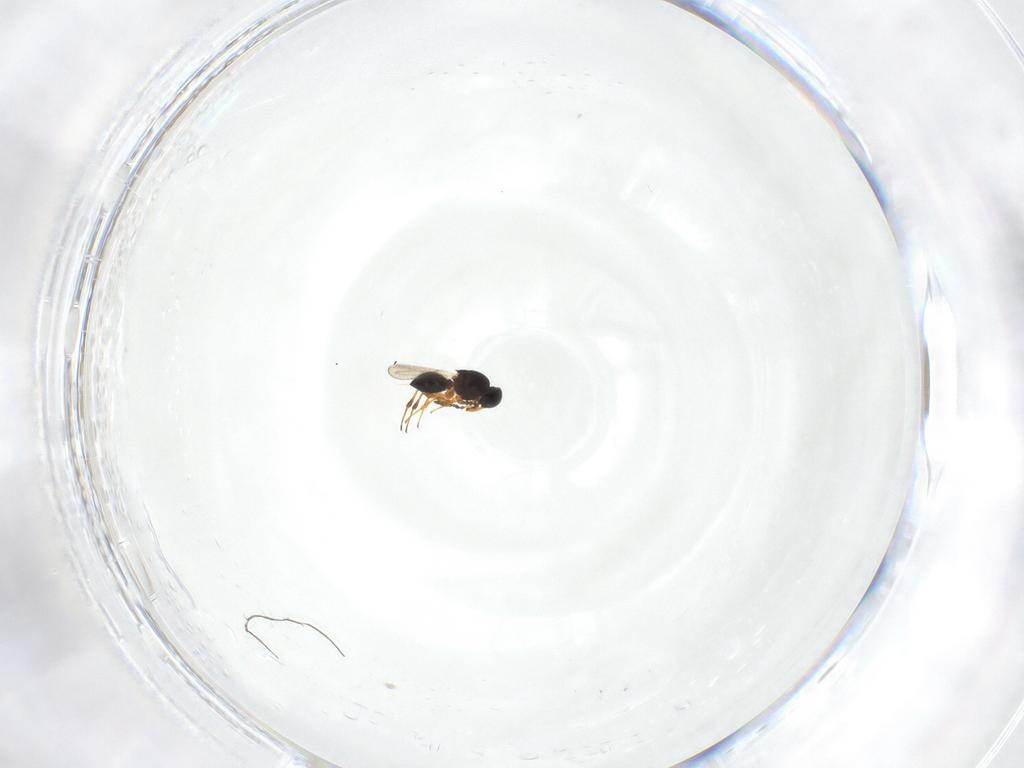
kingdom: Animalia
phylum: Arthropoda
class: Insecta
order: Hymenoptera
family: Platygastridae
